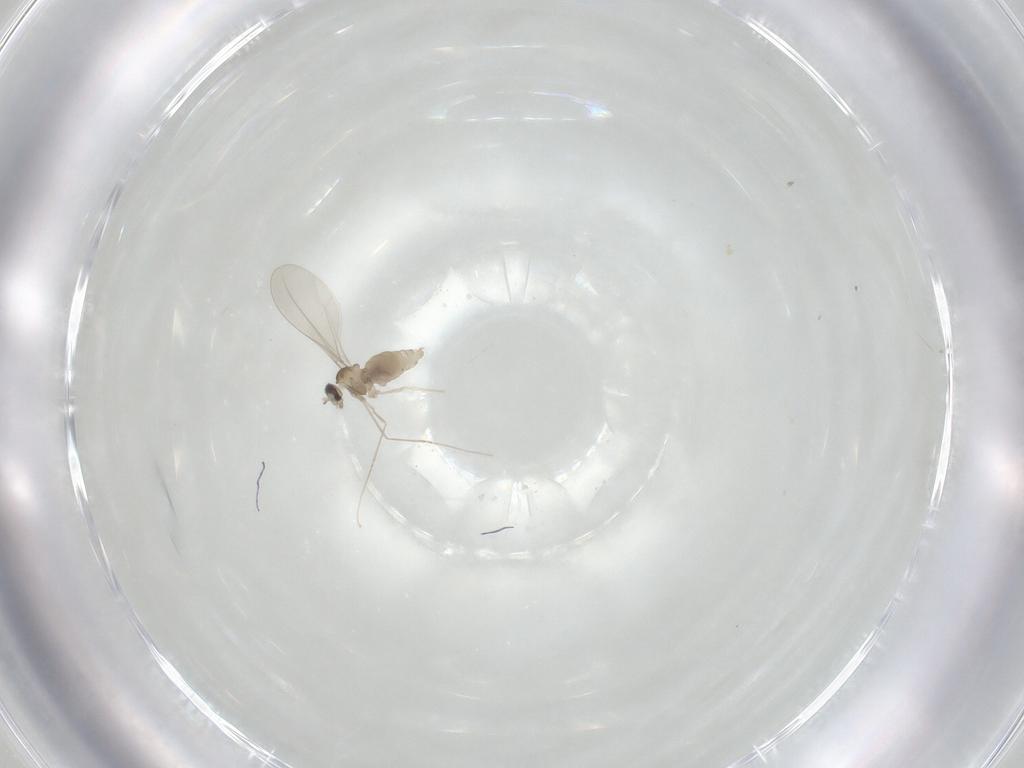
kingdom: Animalia
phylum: Arthropoda
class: Insecta
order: Diptera
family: Cecidomyiidae
